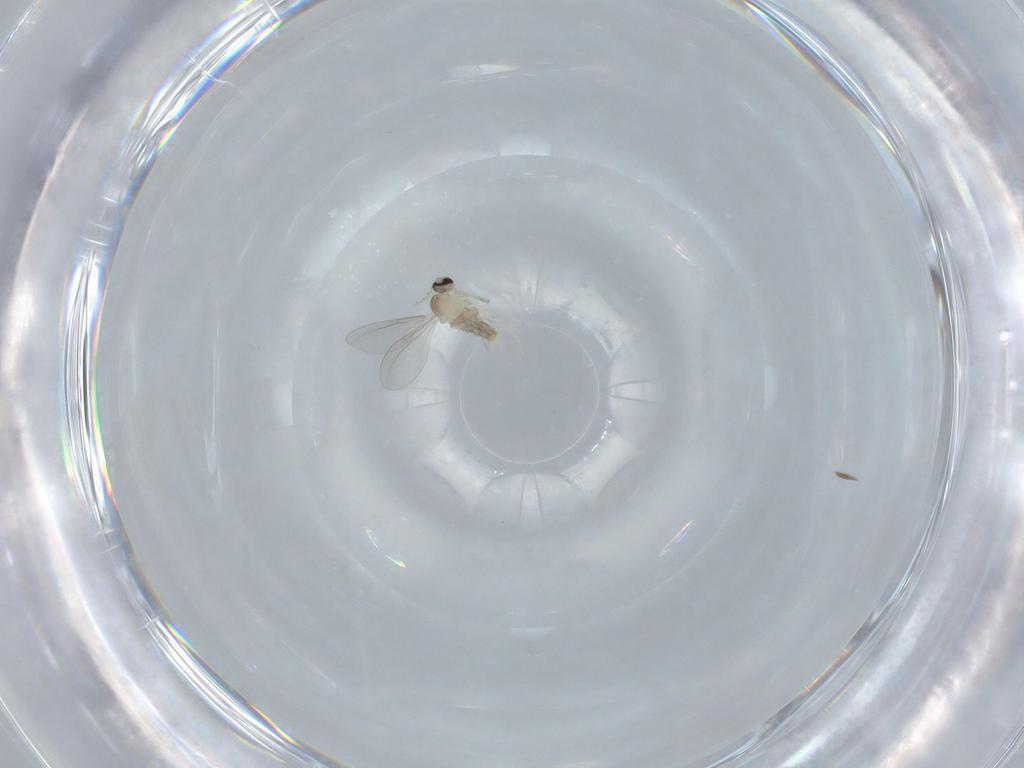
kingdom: Animalia
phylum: Arthropoda
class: Insecta
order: Diptera
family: Cecidomyiidae
